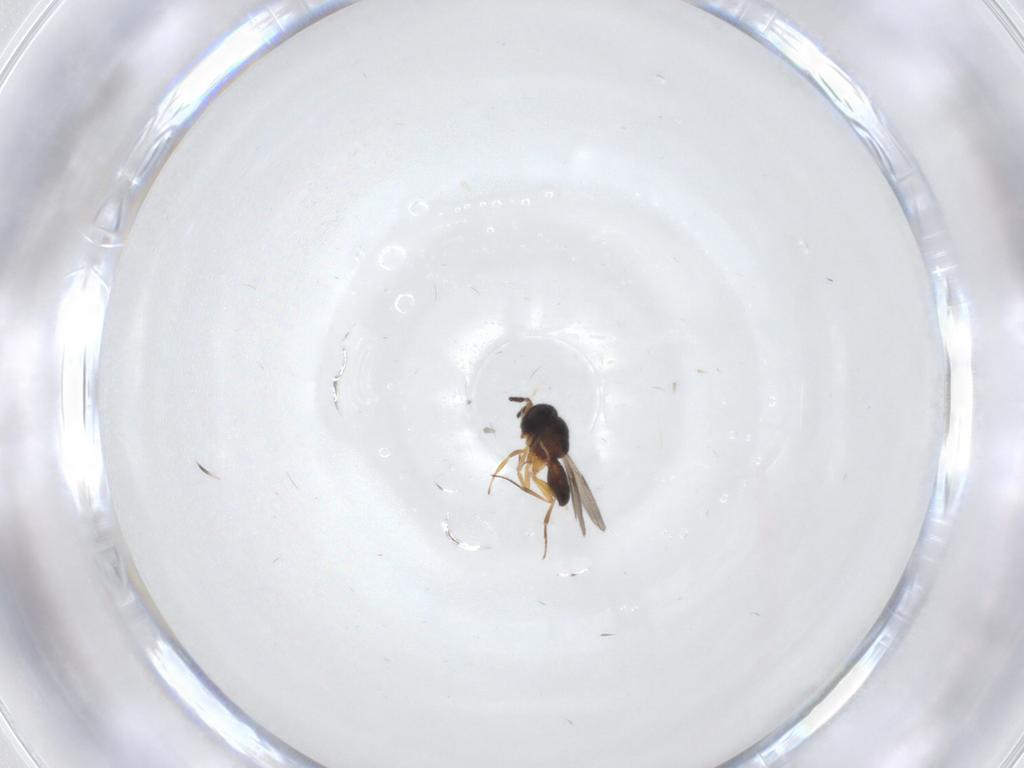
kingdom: Animalia
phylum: Arthropoda
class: Insecta
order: Hymenoptera
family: Scelionidae
